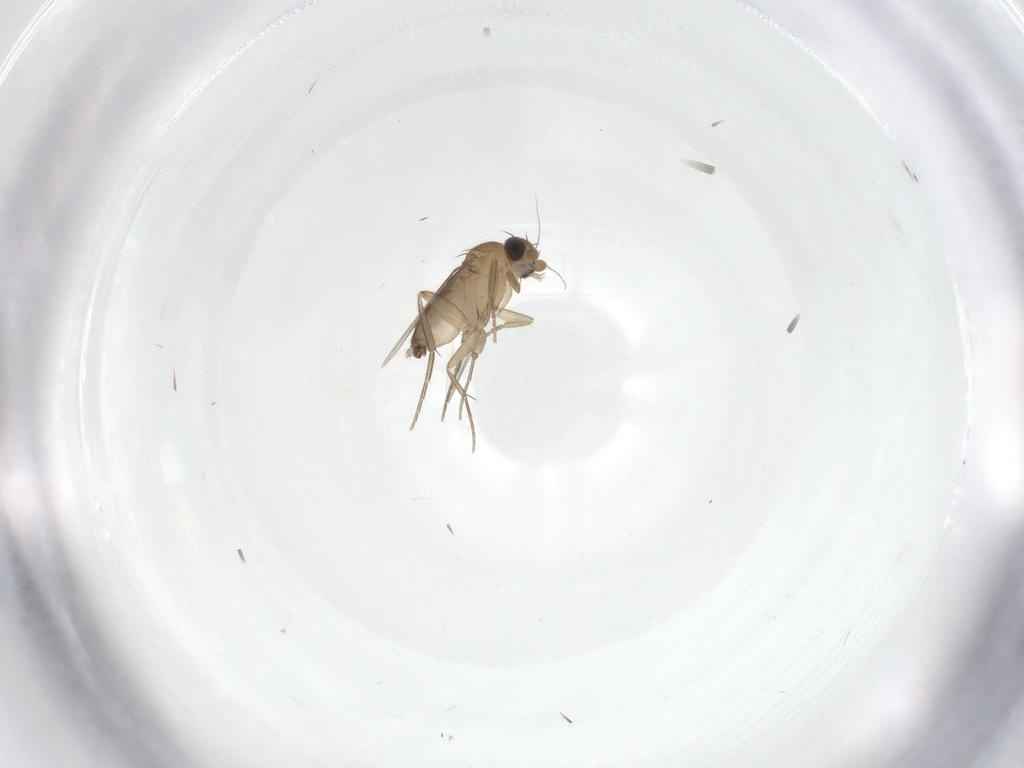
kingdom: Animalia
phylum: Arthropoda
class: Insecta
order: Diptera
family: Phoridae
